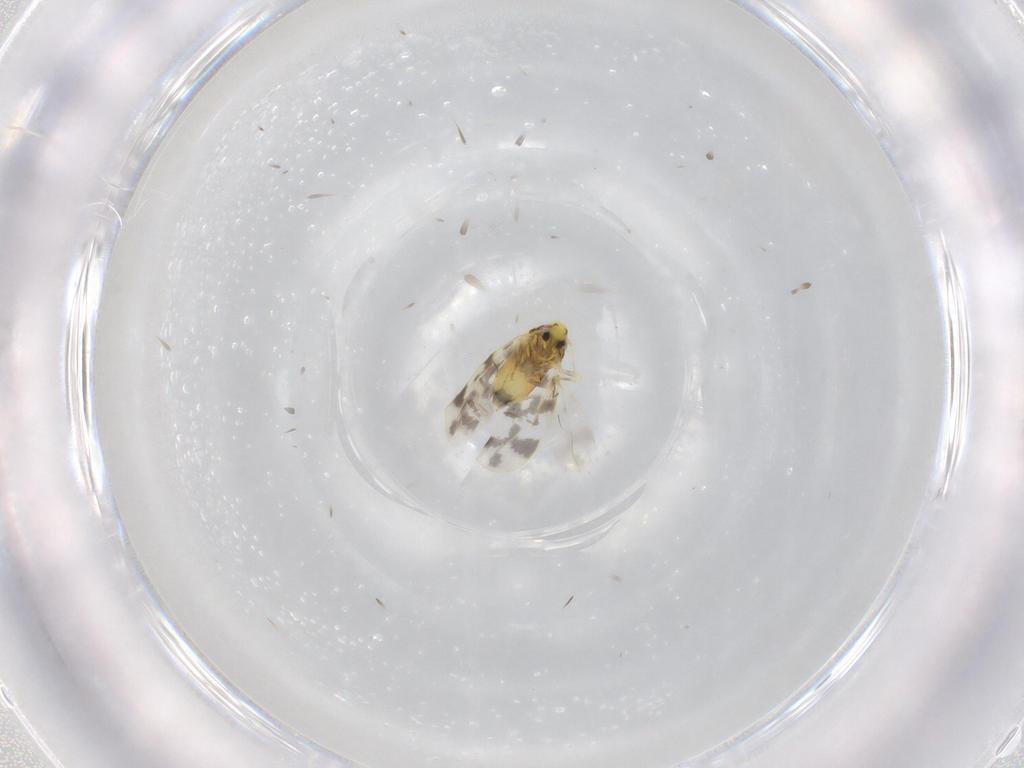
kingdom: Animalia
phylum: Arthropoda
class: Insecta
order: Hemiptera
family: Aleyrodidae
